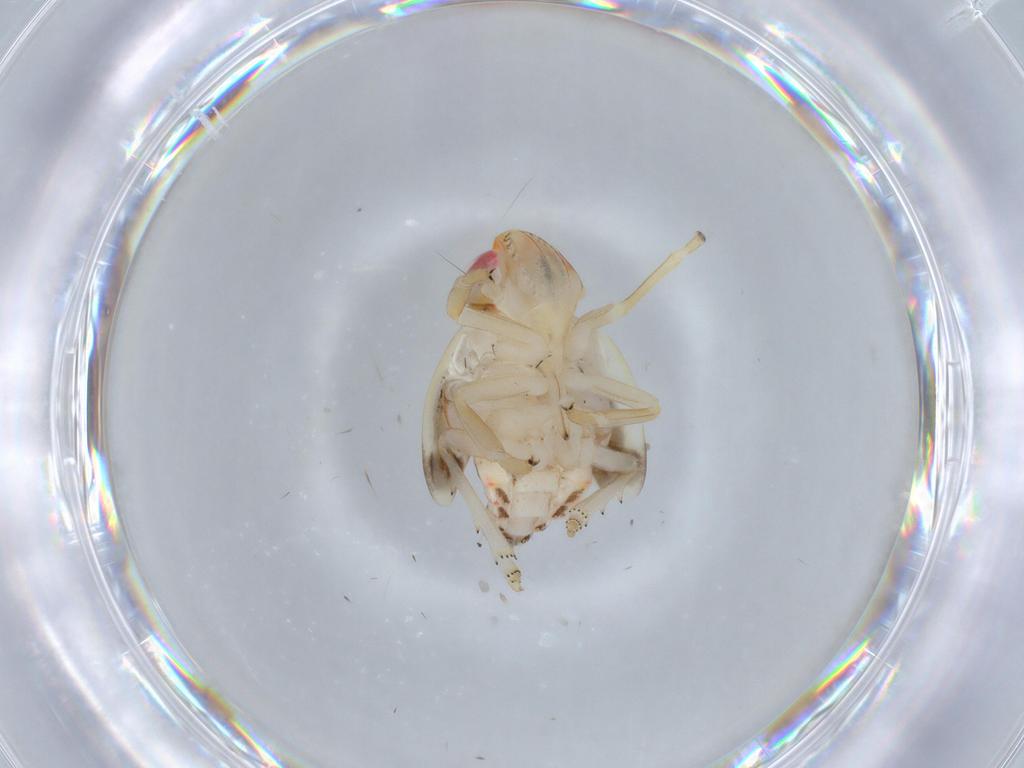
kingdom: Animalia
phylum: Arthropoda
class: Insecta
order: Hemiptera
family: Nogodinidae
